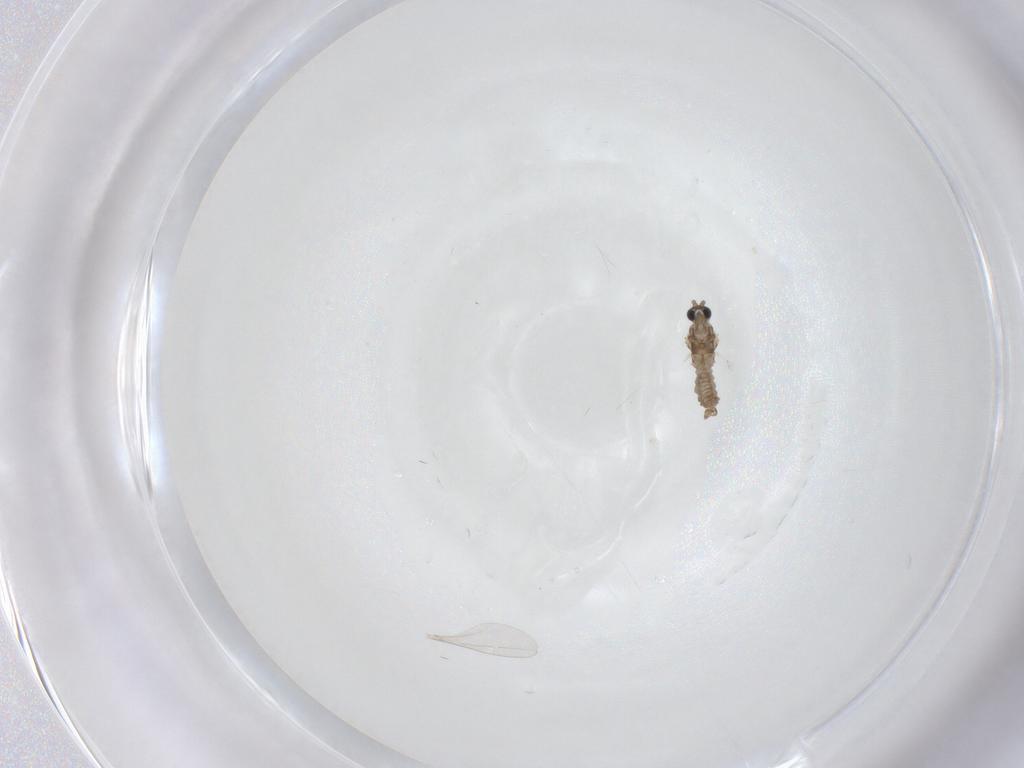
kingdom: Animalia
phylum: Arthropoda
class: Insecta
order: Diptera
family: Cecidomyiidae
